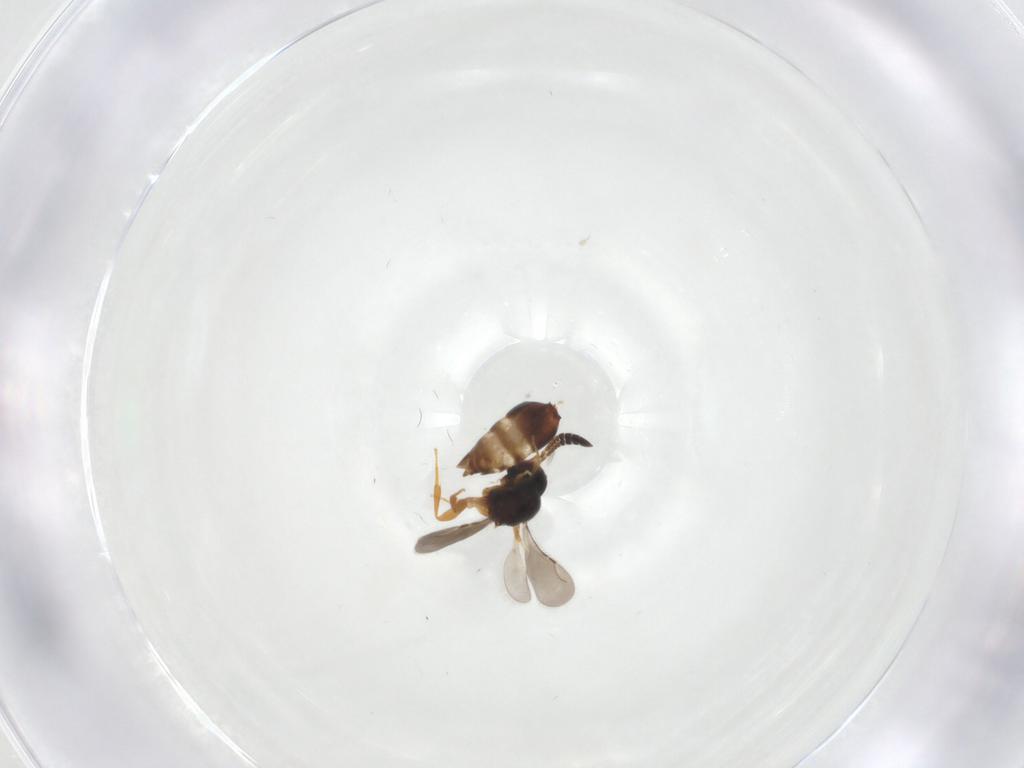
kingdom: Animalia
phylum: Arthropoda
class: Insecta
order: Hymenoptera
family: Ceraphronidae
